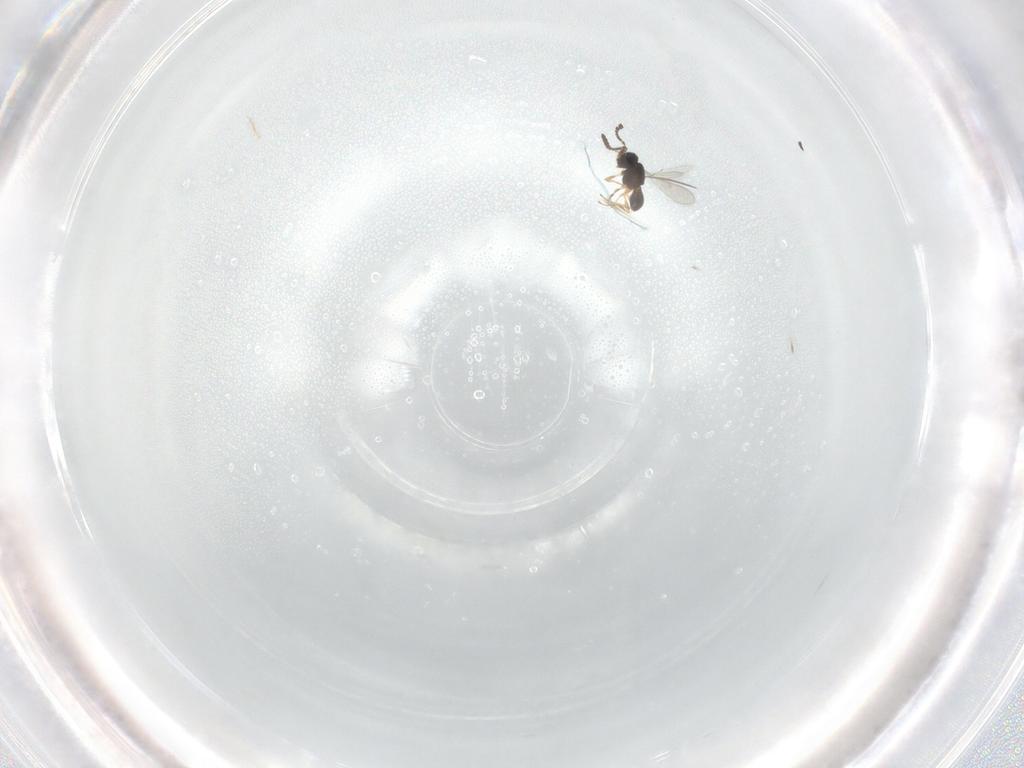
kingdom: Animalia
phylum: Arthropoda
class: Insecta
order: Hymenoptera
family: Scelionidae
